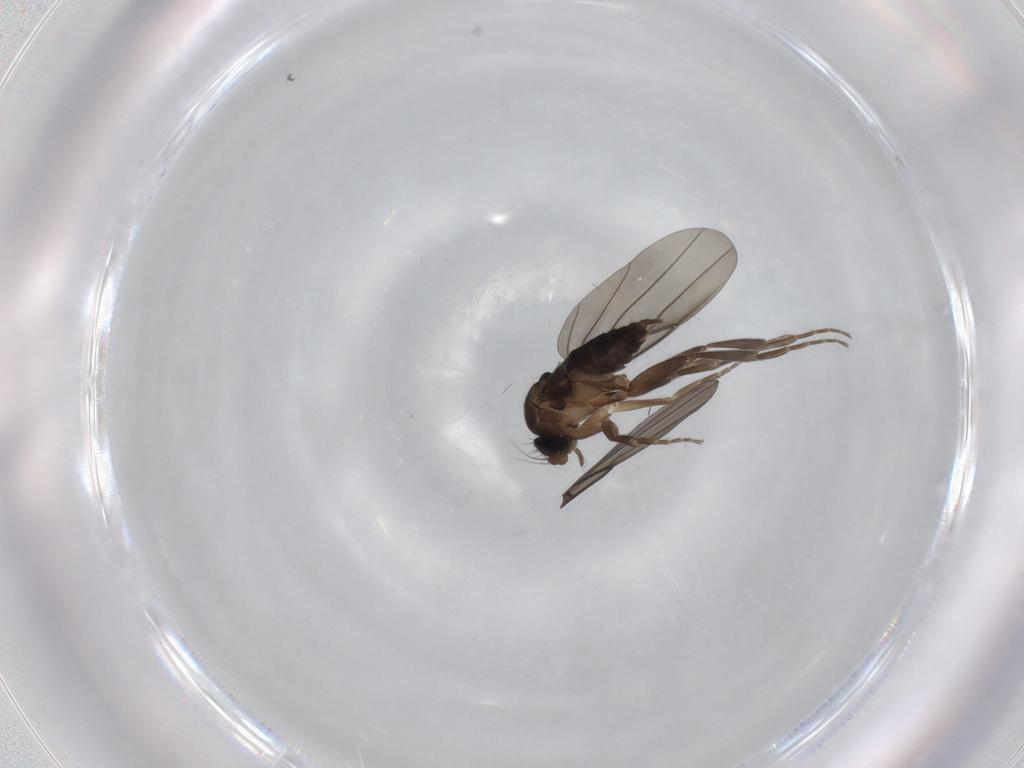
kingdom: Animalia
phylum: Arthropoda
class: Insecta
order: Diptera
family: Phoridae
